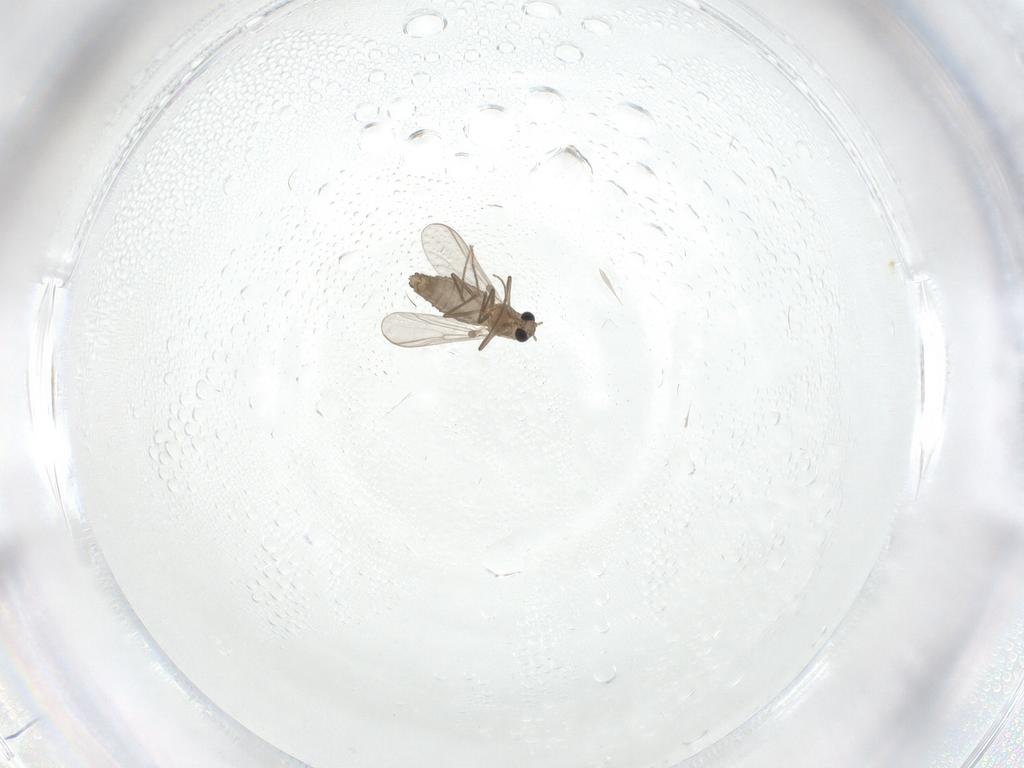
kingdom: Animalia
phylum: Arthropoda
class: Insecta
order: Diptera
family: Chironomidae
